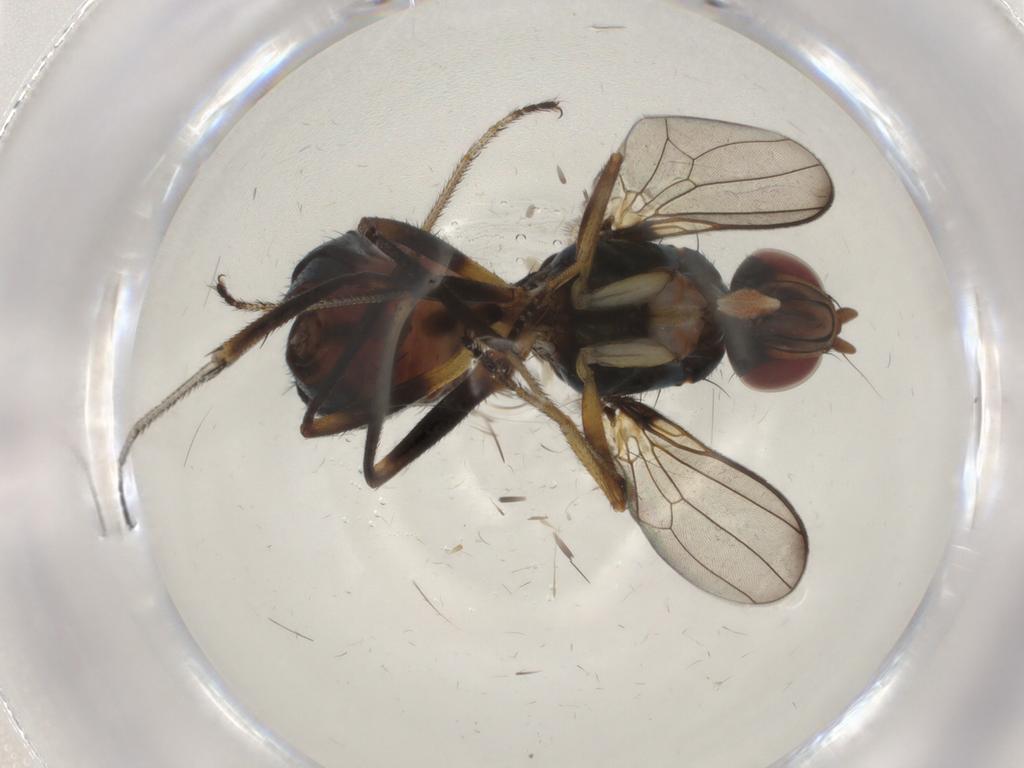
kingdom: Animalia
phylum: Arthropoda
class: Insecta
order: Diptera
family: Sepsidae
